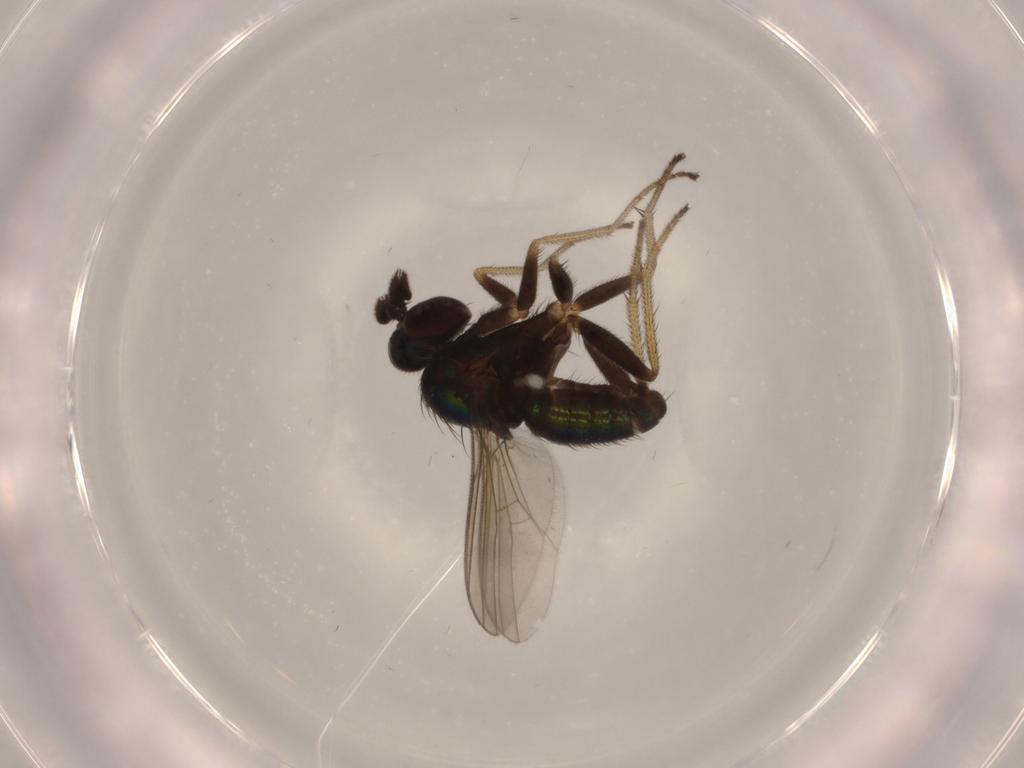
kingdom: Animalia
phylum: Arthropoda
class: Insecta
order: Diptera
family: Dolichopodidae
